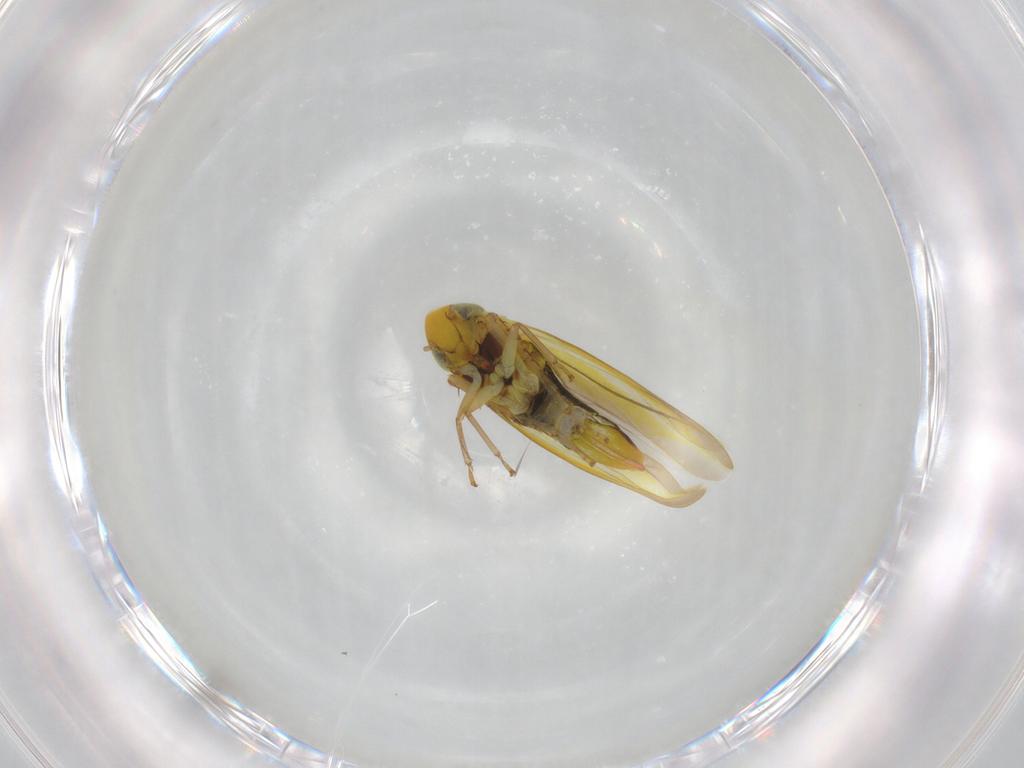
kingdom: Animalia
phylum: Arthropoda
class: Insecta
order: Hemiptera
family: Cicadellidae
